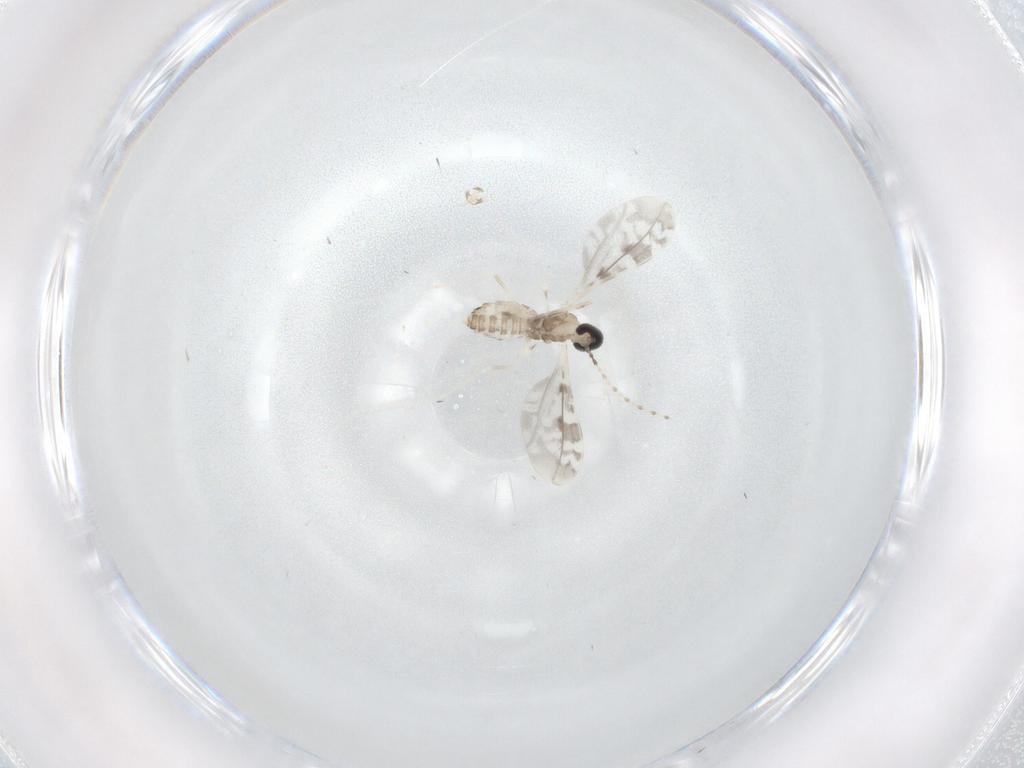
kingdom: Animalia
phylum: Arthropoda
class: Insecta
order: Diptera
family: Cecidomyiidae
